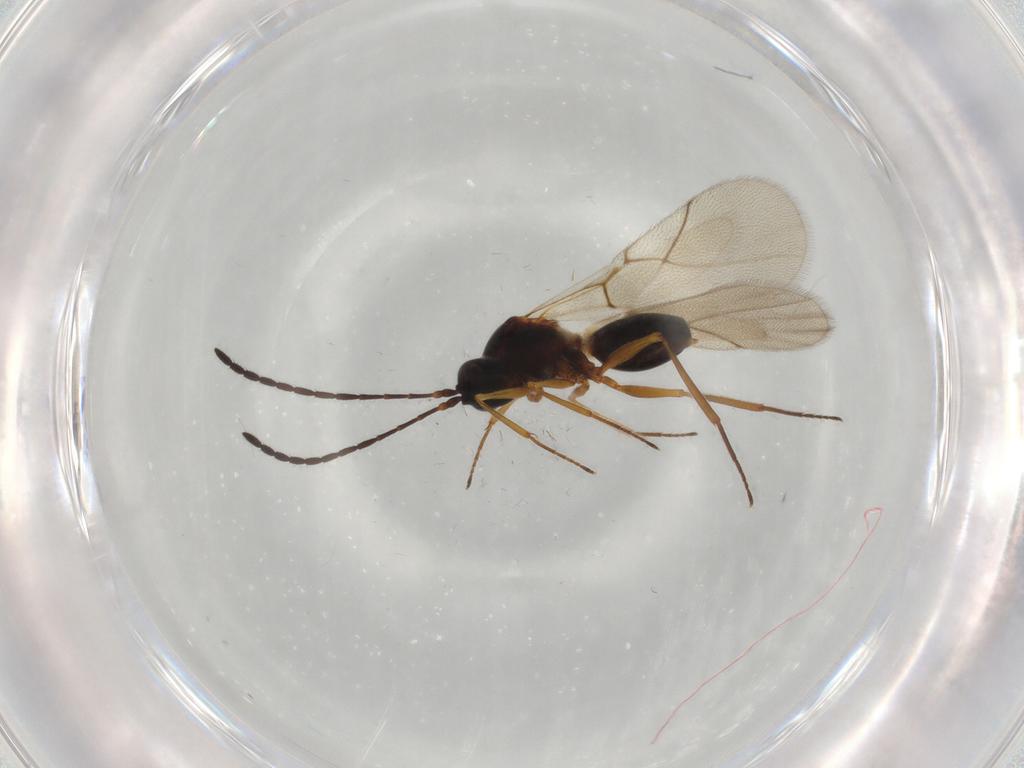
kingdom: Animalia
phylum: Arthropoda
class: Insecta
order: Hymenoptera
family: Figitidae
